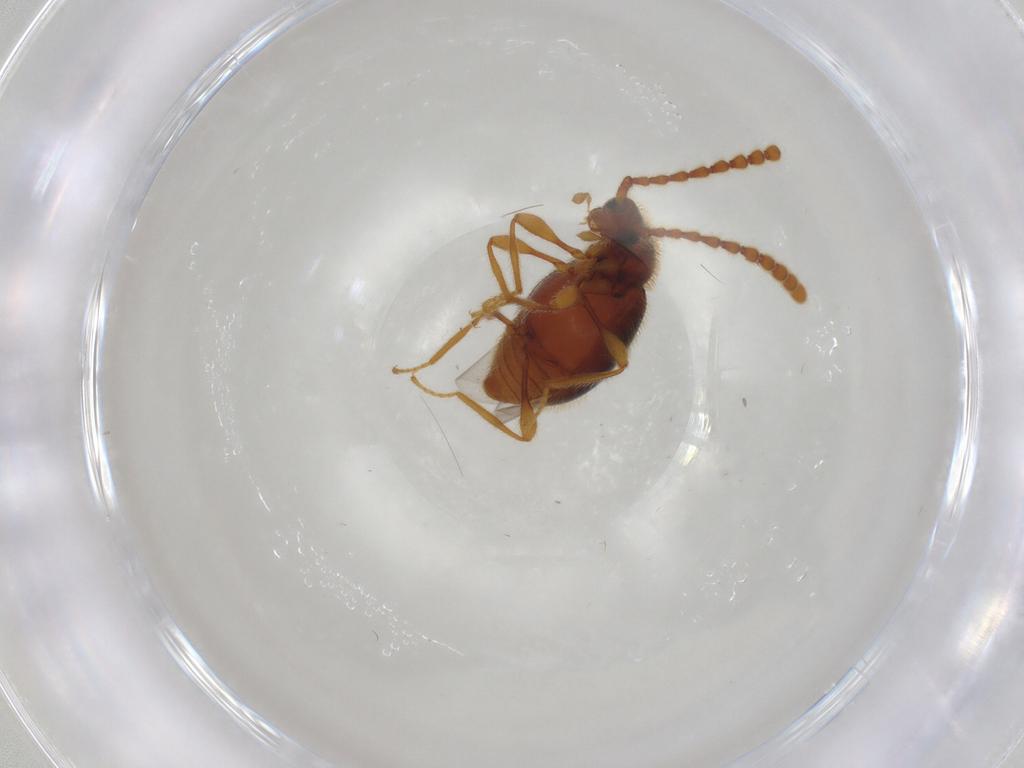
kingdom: Animalia
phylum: Arthropoda
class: Insecta
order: Coleoptera
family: Staphylinidae
